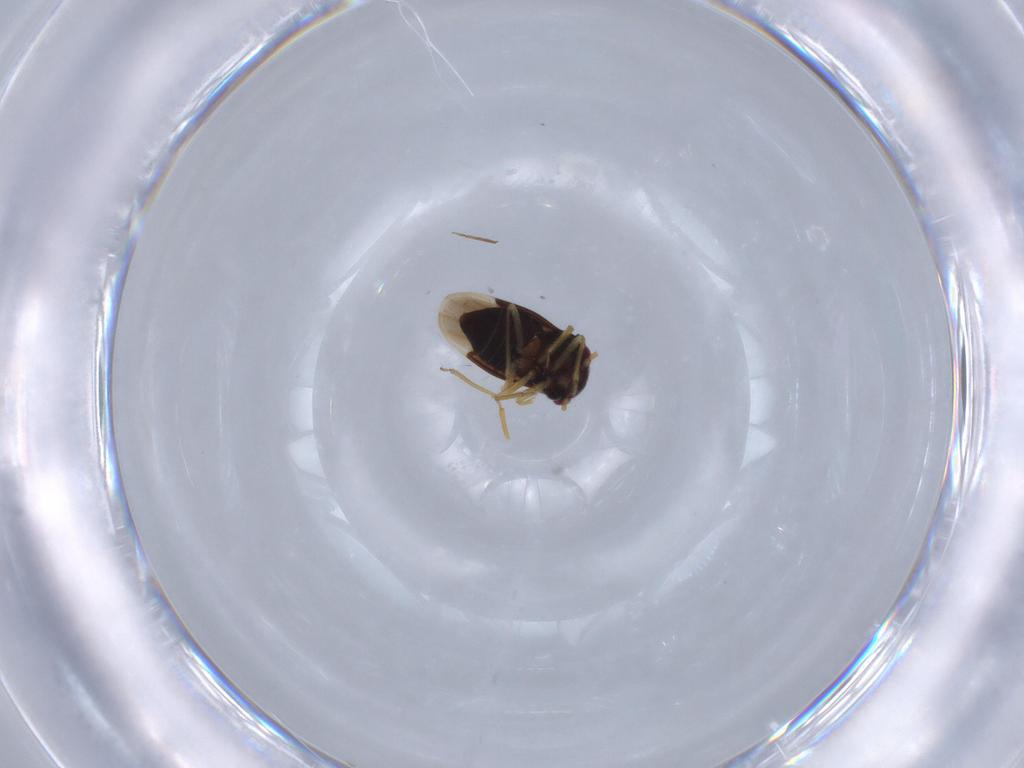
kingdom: Animalia
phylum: Arthropoda
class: Insecta
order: Hemiptera
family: Schizopteridae
